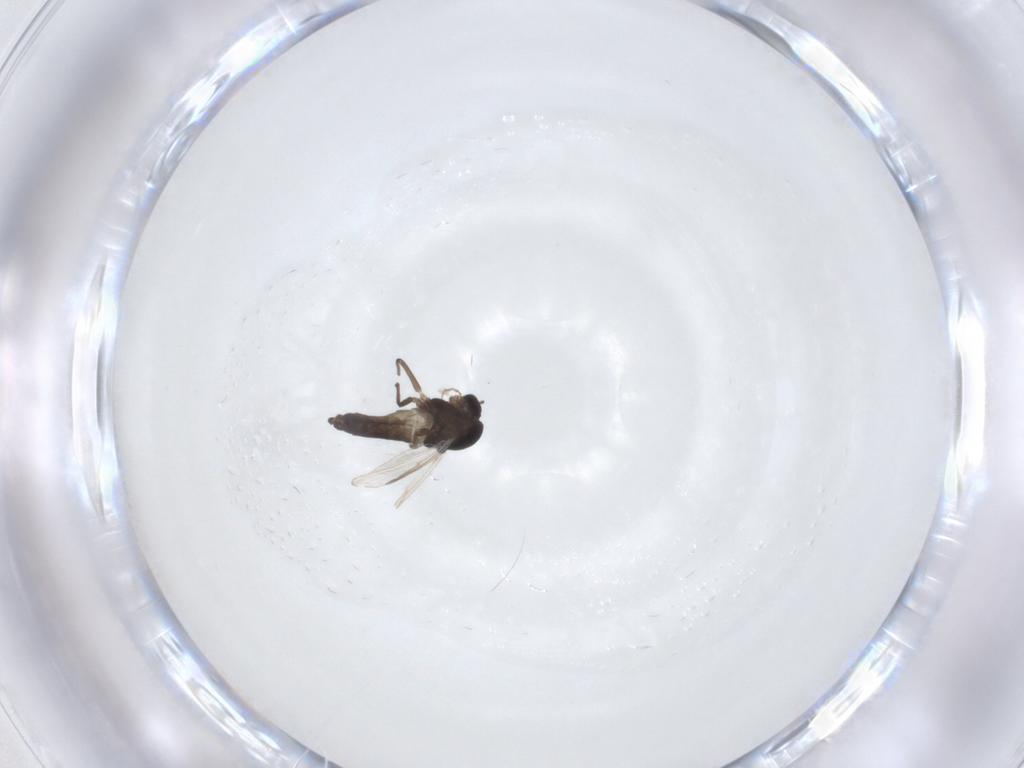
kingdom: Animalia
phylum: Arthropoda
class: Insecta
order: Diptera
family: Chironomidae
